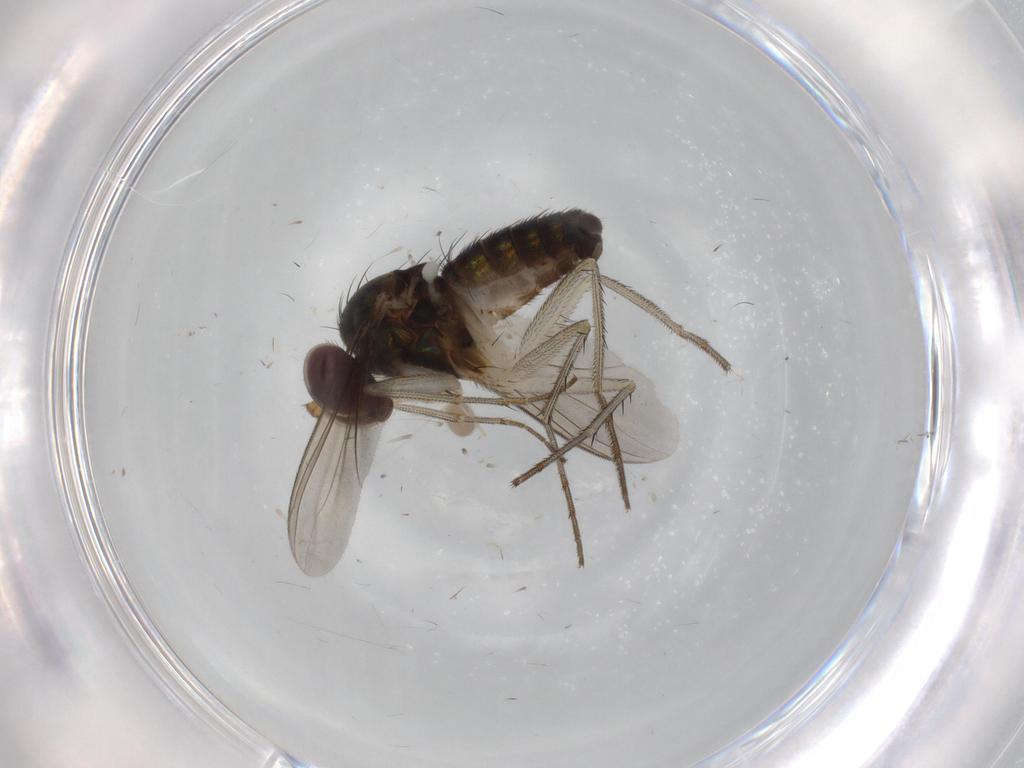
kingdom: Animalia
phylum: Arthropoda
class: Insecta
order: Diptera
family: Dolichopodidae
